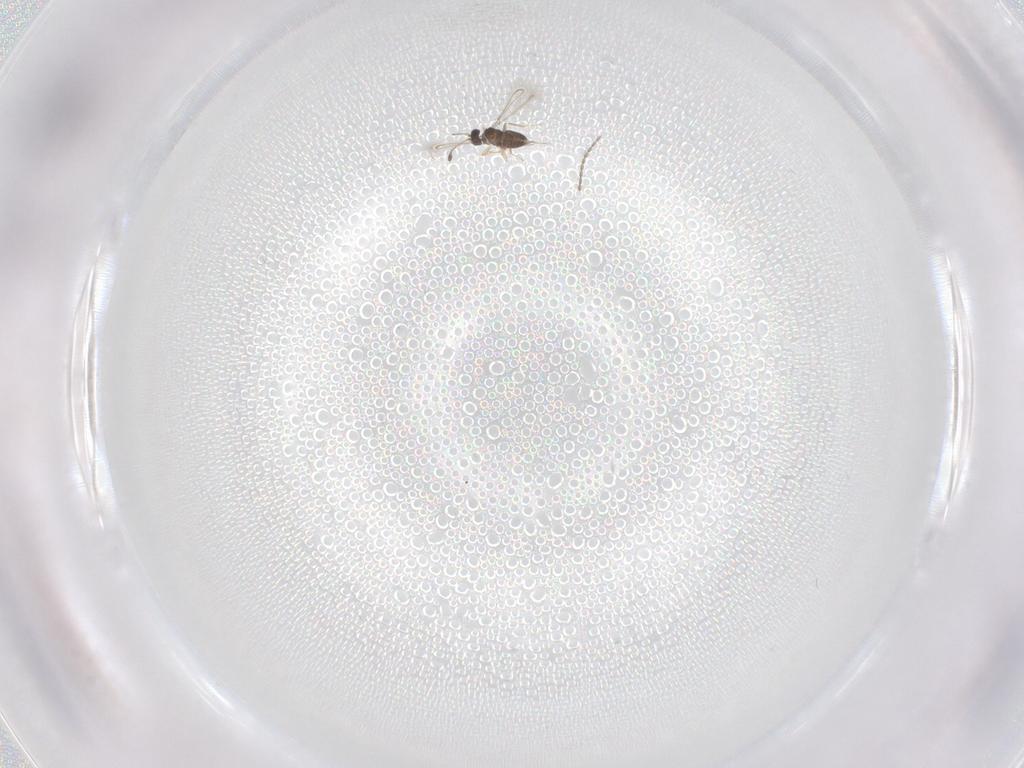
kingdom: Animalia
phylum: Arthropoda
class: Insecta
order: Hymenoptera
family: Mymaridae
